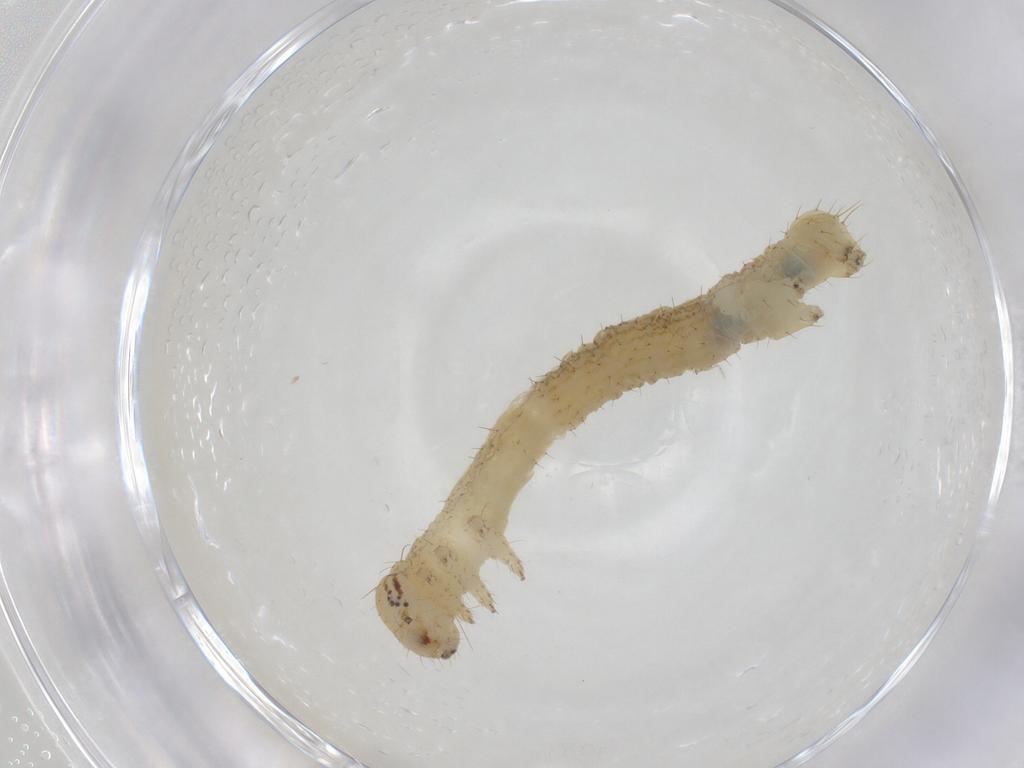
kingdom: Animalia
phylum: Arthropoda
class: Insecta
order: Lepidoptera
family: Geometridae
